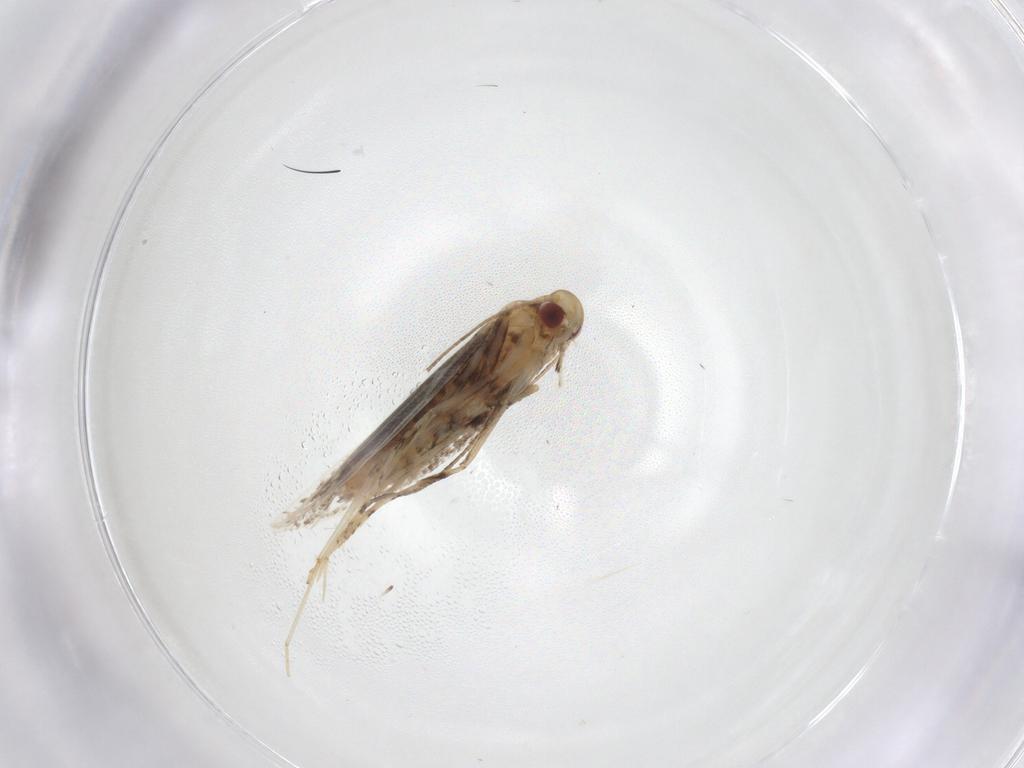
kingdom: Animalia
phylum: Arthropoda
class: Insecta
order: Lepidoptera
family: Gracillariidae
